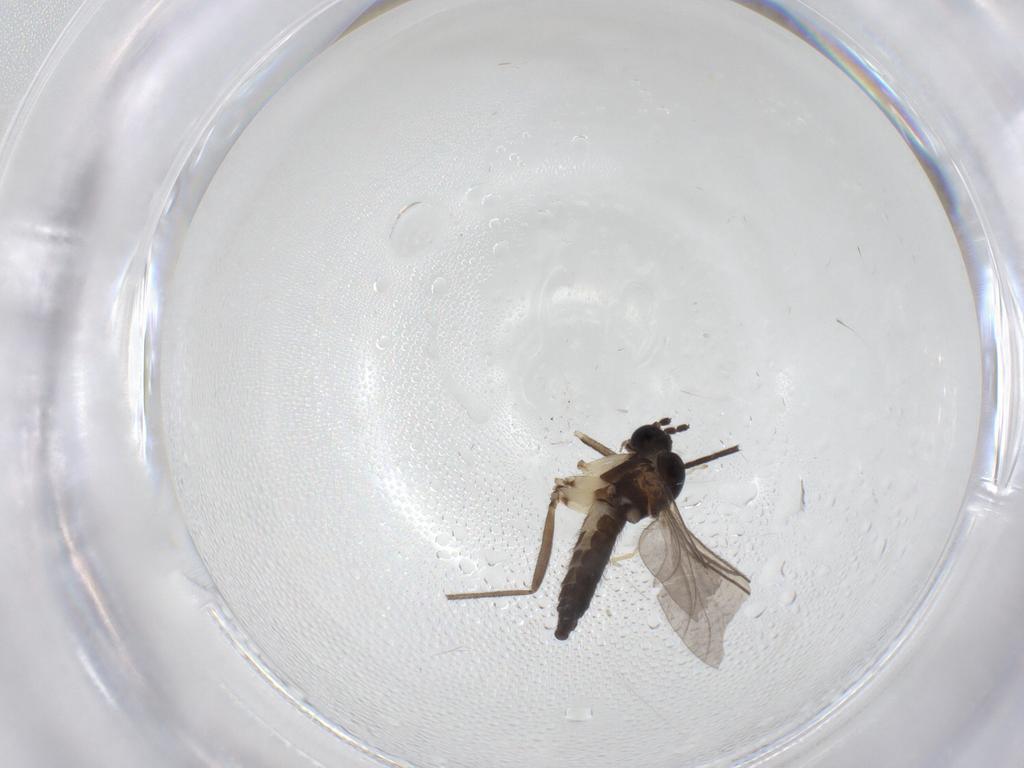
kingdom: Animalia
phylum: Arthropoda
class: Insecta
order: Diptera
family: Sciaridae
